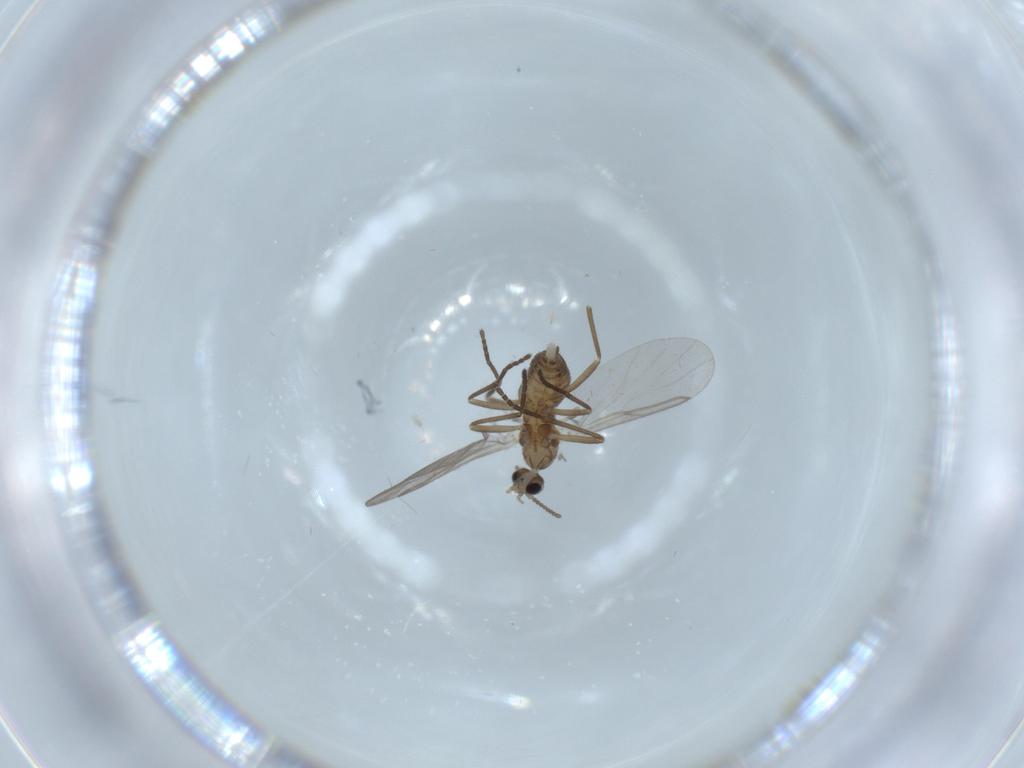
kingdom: Animalia
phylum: Arthropoda
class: Insecta
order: Diptera
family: Cecidomyiidae
